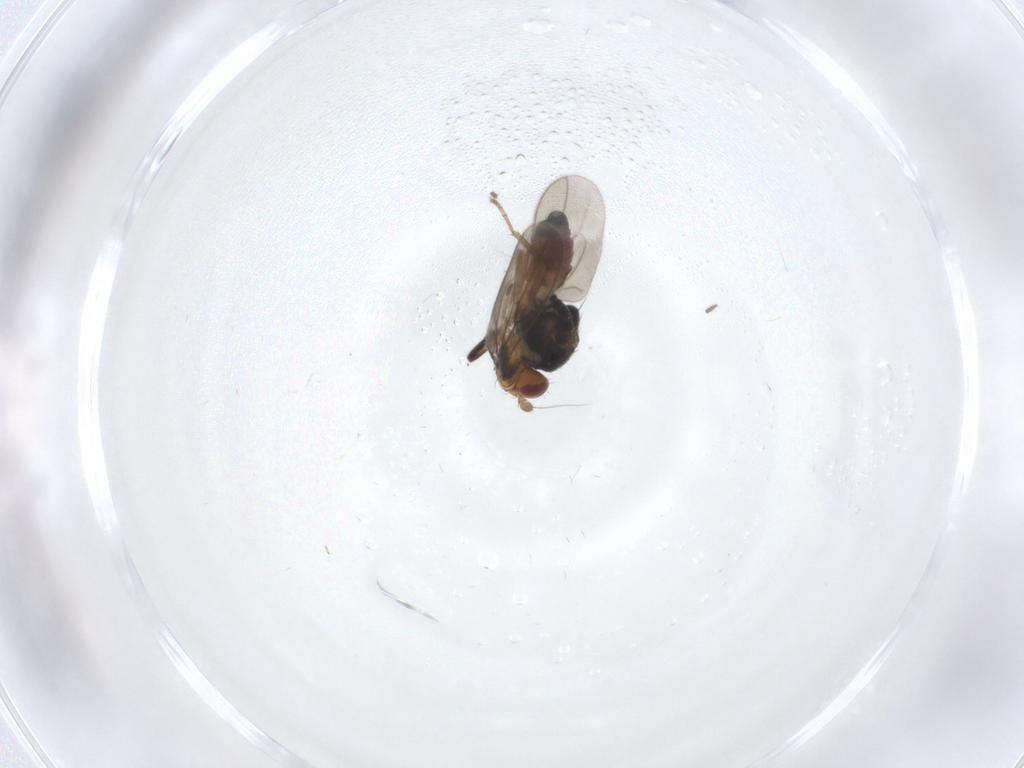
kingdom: Animalia
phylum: Arthropoda
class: Insecta
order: Diptera
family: Sphaeroceridae
